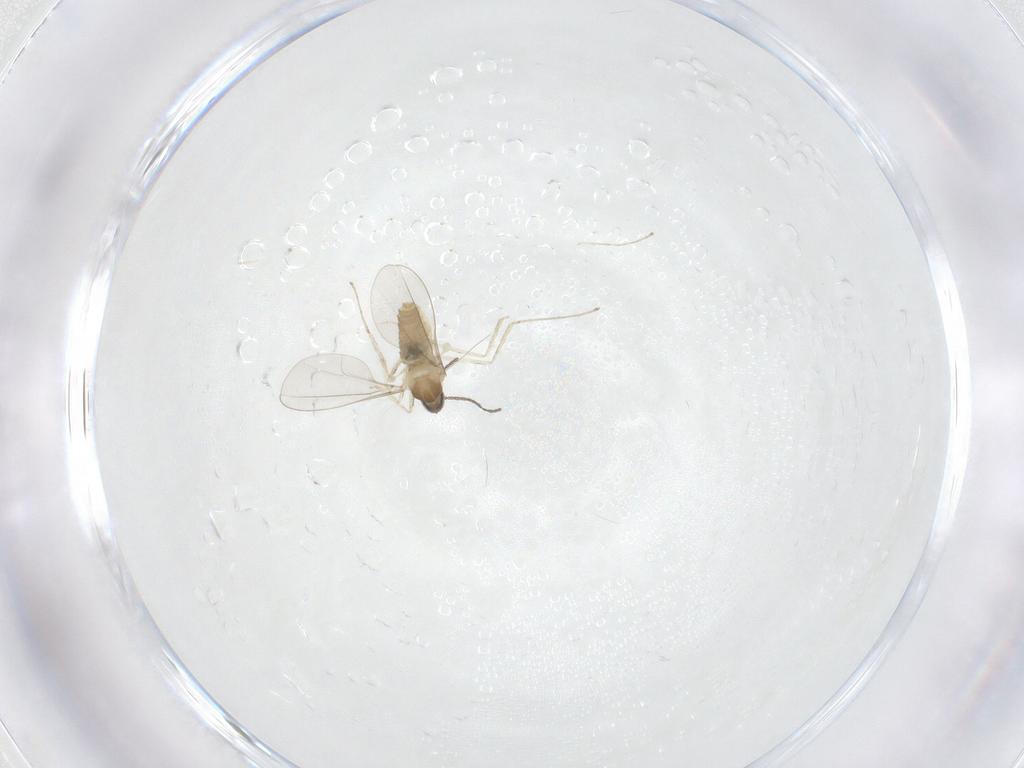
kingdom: Animalia
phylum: Arthropoda
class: Insecta
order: Diptera
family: Cecidomyiidae
